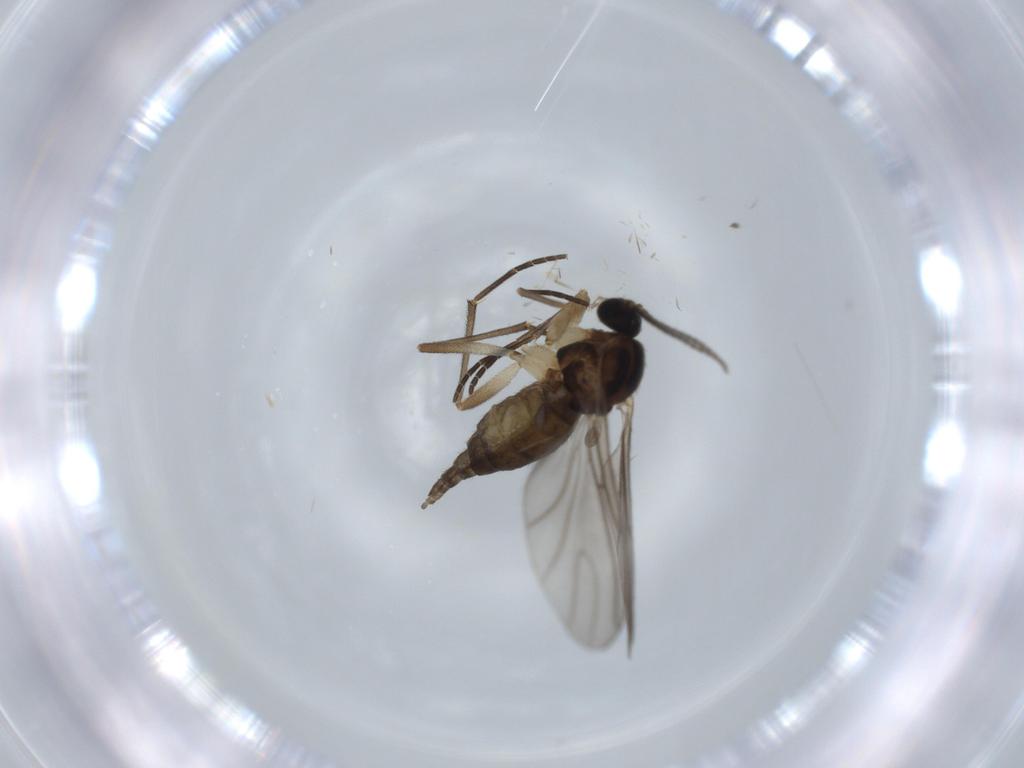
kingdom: Animalia
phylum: Arthropoda
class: Insecta
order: Diptera
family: Sciaridae
